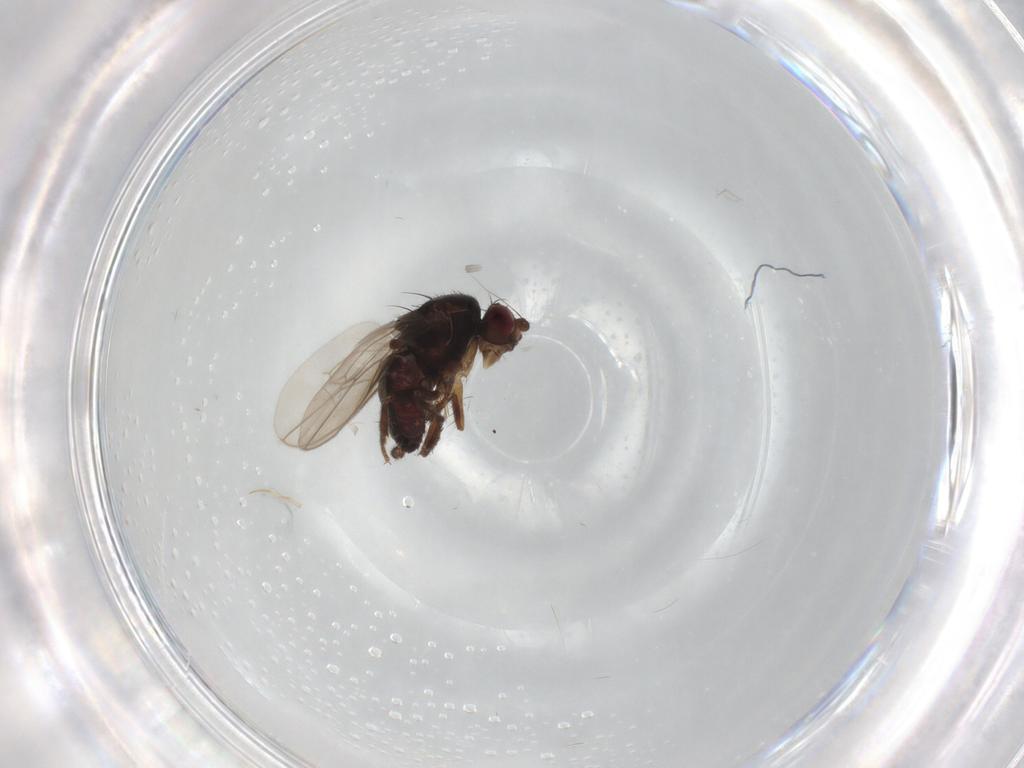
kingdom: Animalia
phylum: Arthropoda
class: Insecta
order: Diptera
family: Sphaeroceridae
